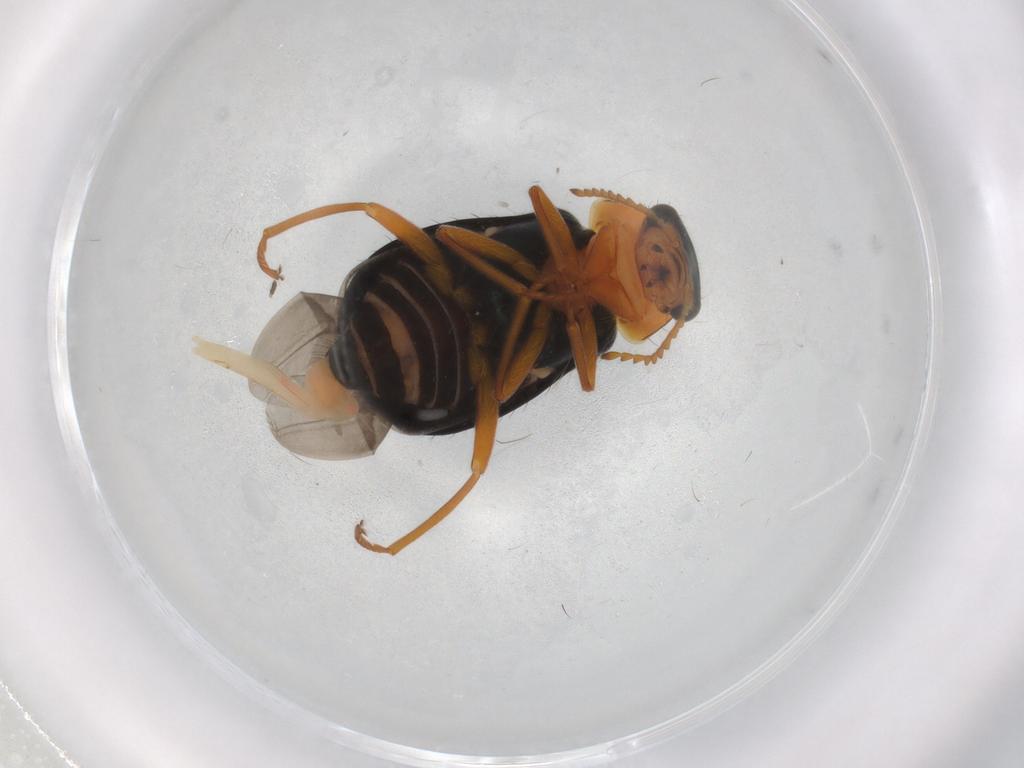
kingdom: Animalia
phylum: Arthropoda
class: Insecta
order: Coleoptera
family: Melyridae
